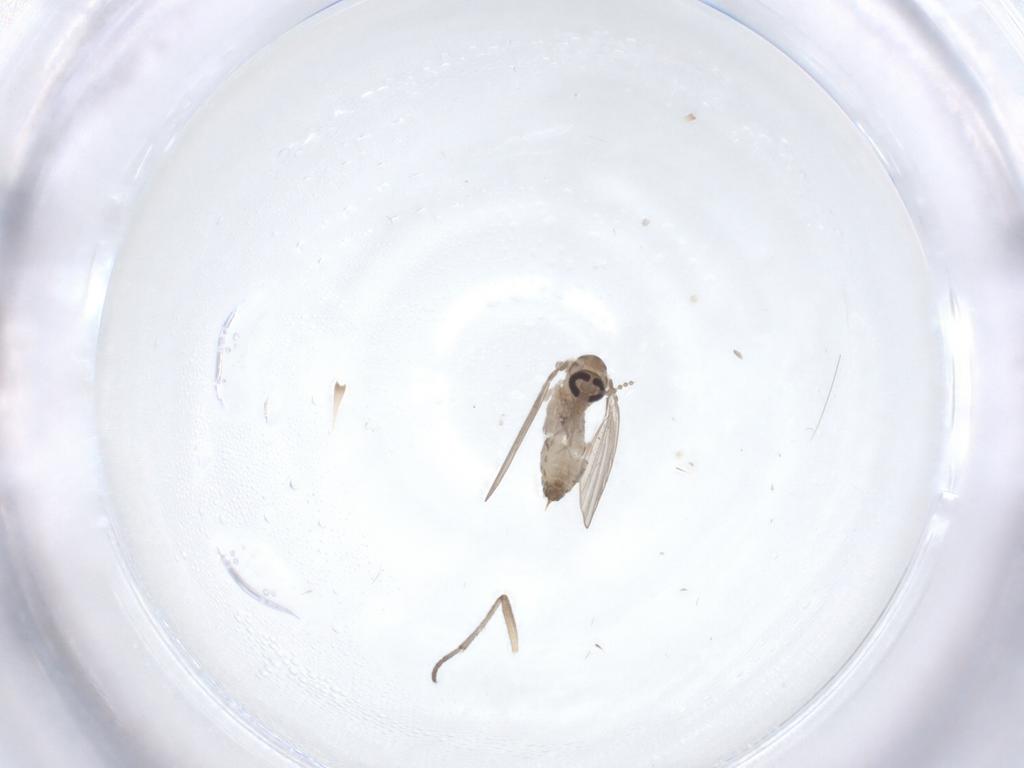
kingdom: Animalia
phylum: Arthropoda
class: Insecta
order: Diptera
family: Psychodidae
